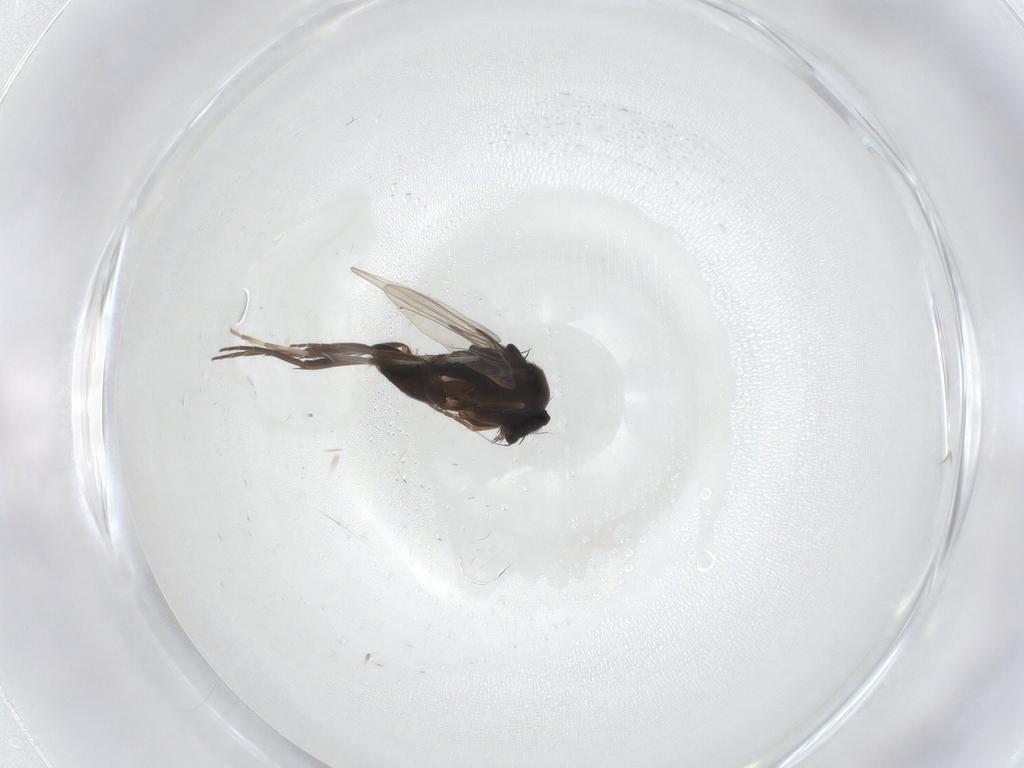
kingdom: Animalia
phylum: Arthropoda
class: Insecta
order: Diptera
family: Phoridae
